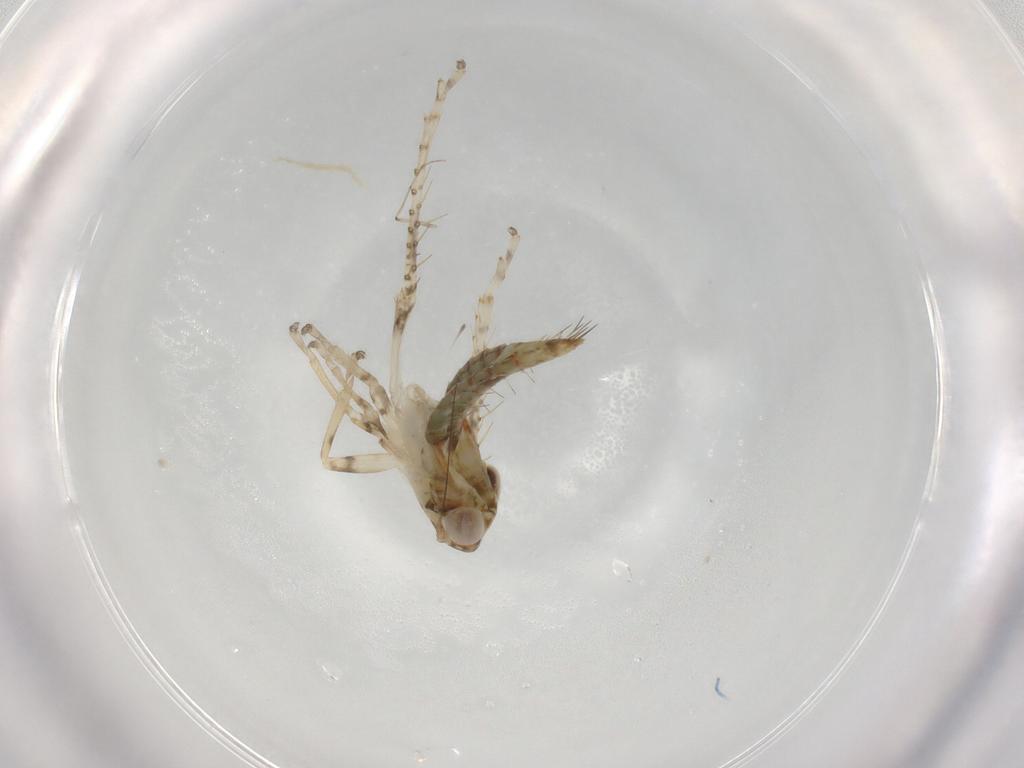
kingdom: Animalia
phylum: Arthropoda
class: Insecta
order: Hemiptera
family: Cicadellidae
